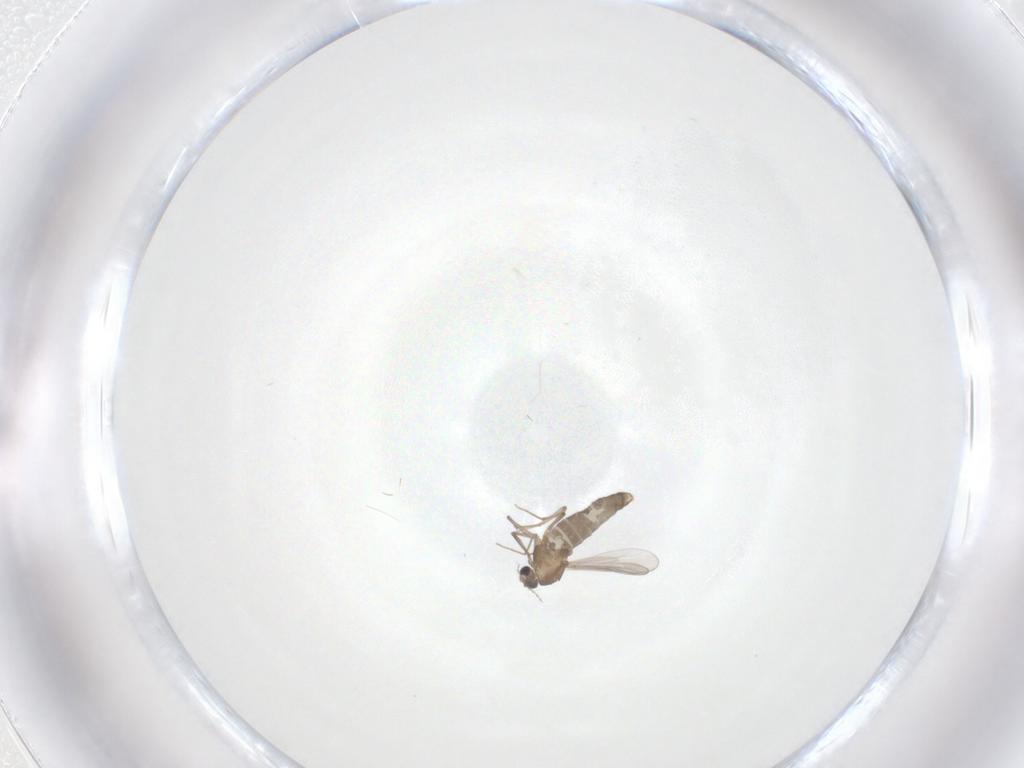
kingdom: Animalia
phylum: Arthropoda
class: Insecta
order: Diptera
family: Chironomidae
